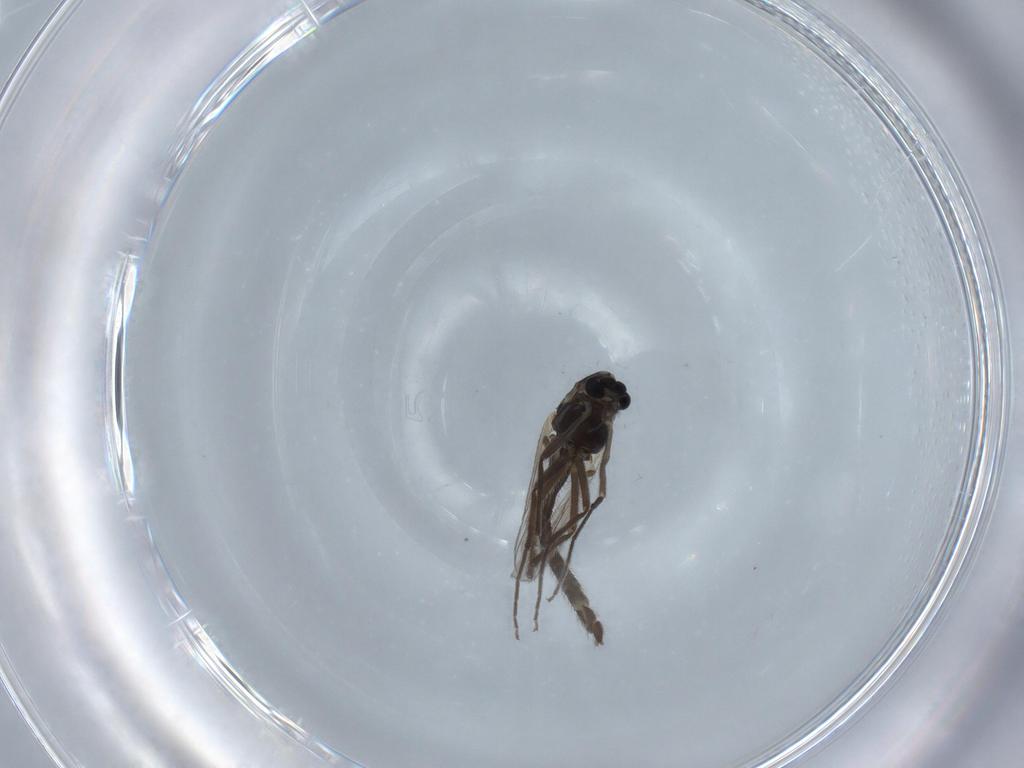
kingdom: Animalia
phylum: Arthropoda
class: Insecta
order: Diptera
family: Chironomidae
